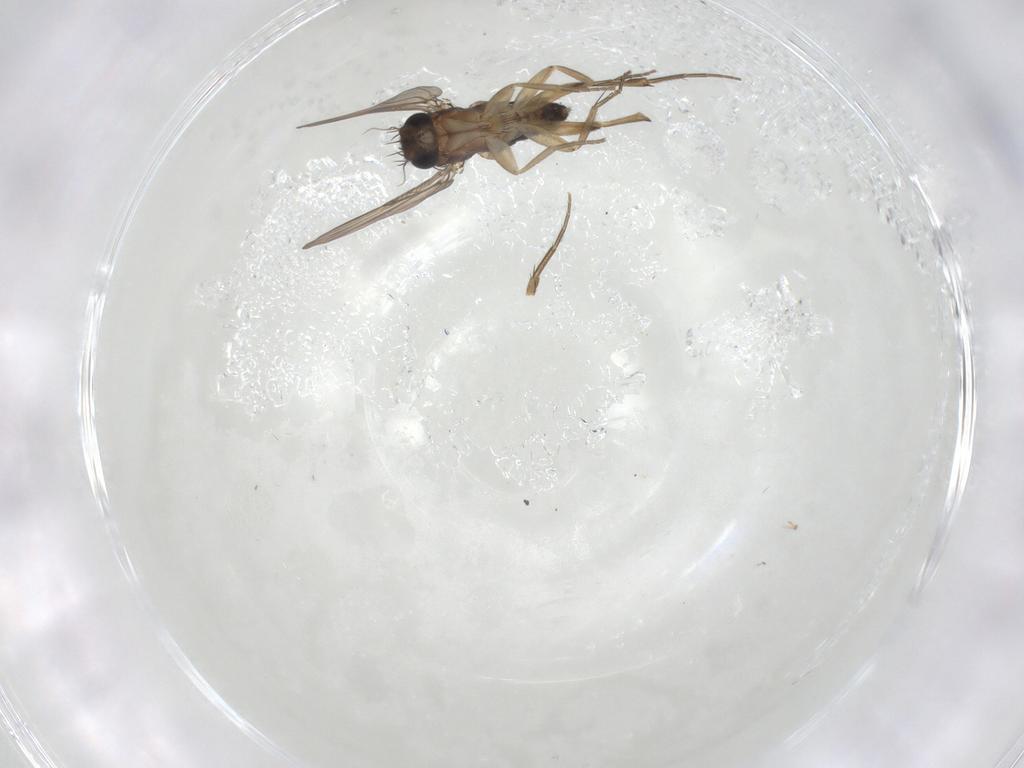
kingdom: Animalia
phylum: Arthropoda
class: Insecta
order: Diptera
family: Phoridae
